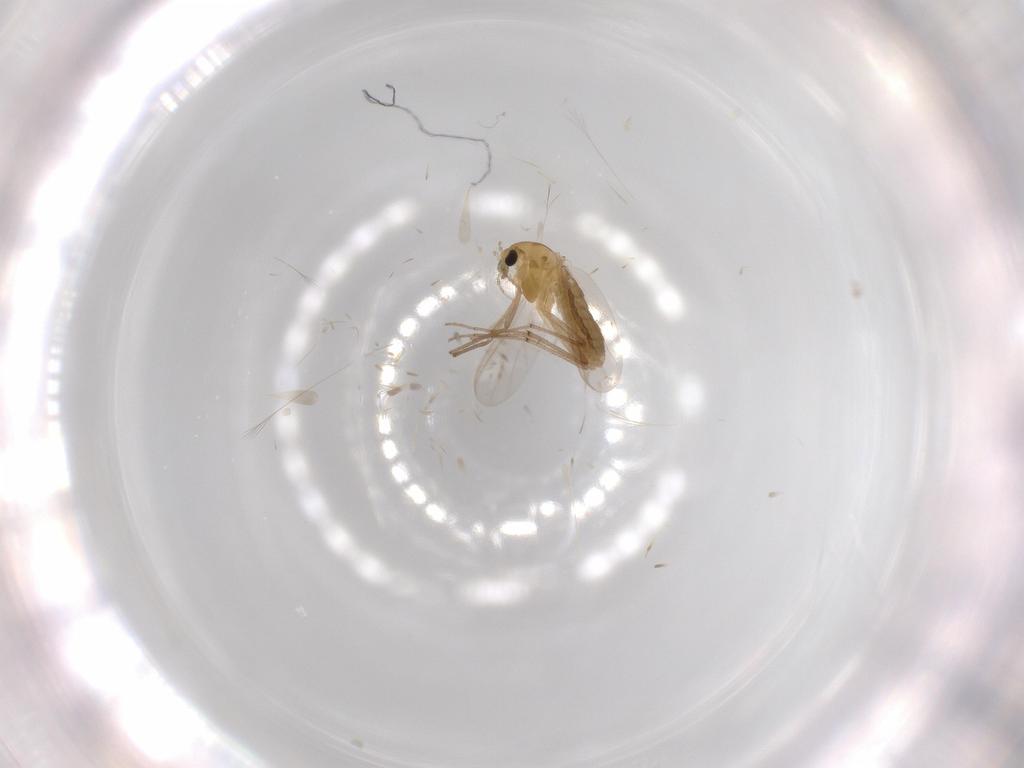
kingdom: Animalia
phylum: Arthropoda
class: Insecta
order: Diptera
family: Chironomidae
